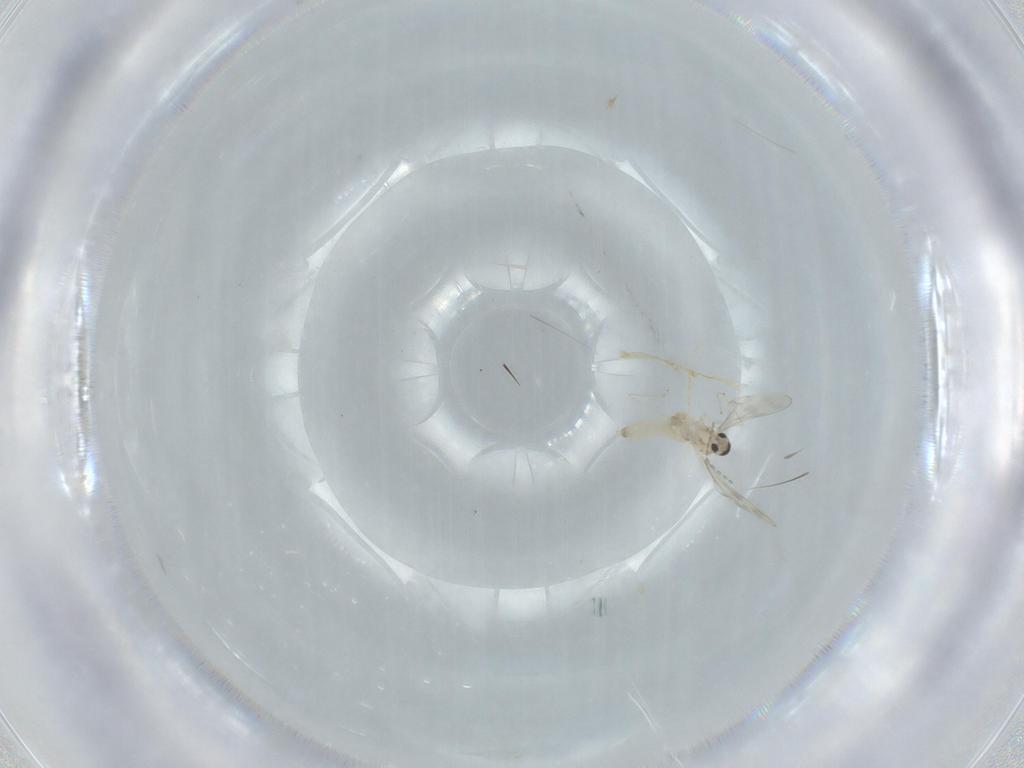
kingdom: Animalia
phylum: Arthropoda
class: Insecta
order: Diptera
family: Cecidomyiidae
